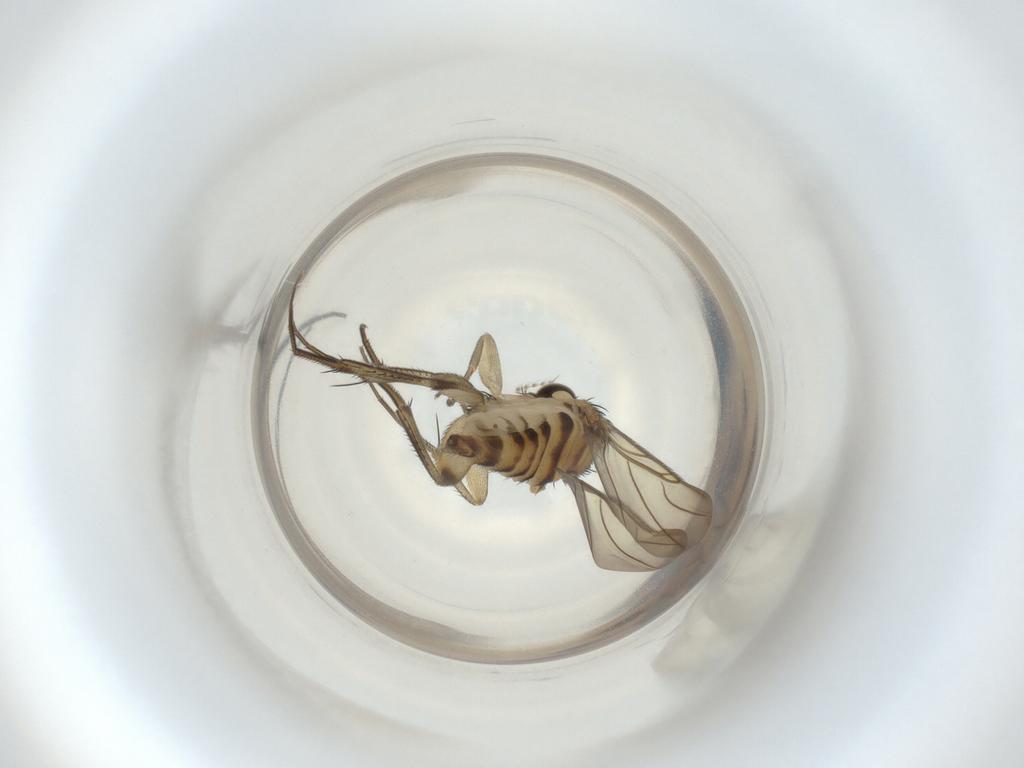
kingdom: Animalia
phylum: Arthropoda
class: Insecta
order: Diptera
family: Phoridae
